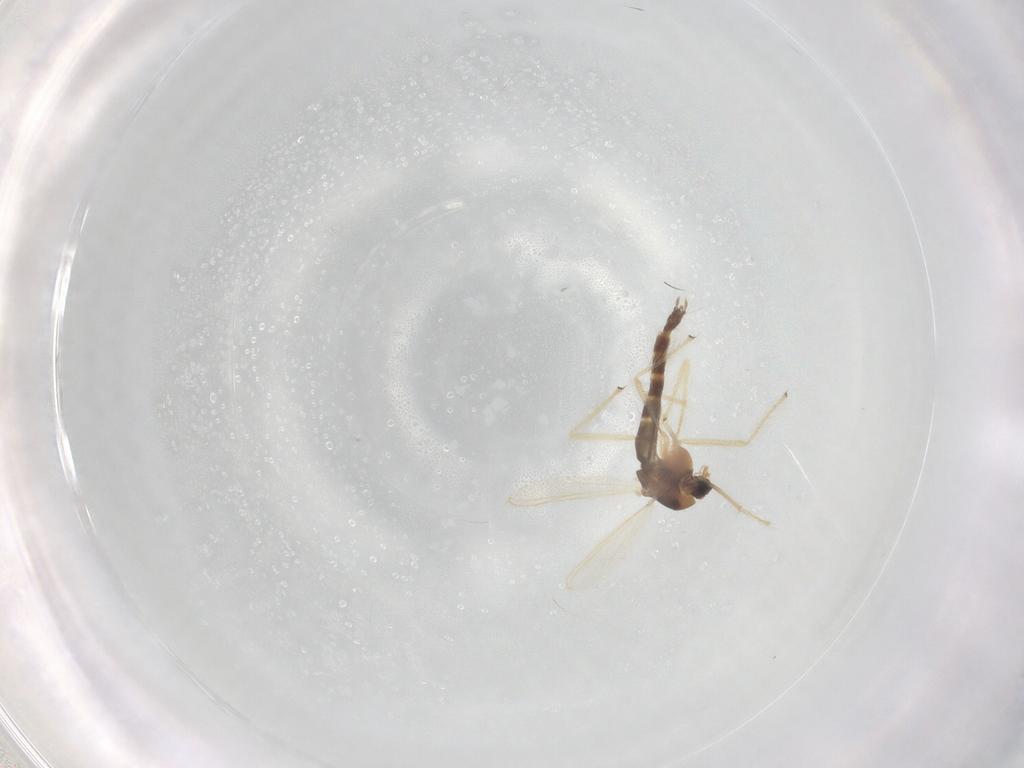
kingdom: Animalia
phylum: Arthropoda
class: Insecta
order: Diptera
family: Chironomidae
